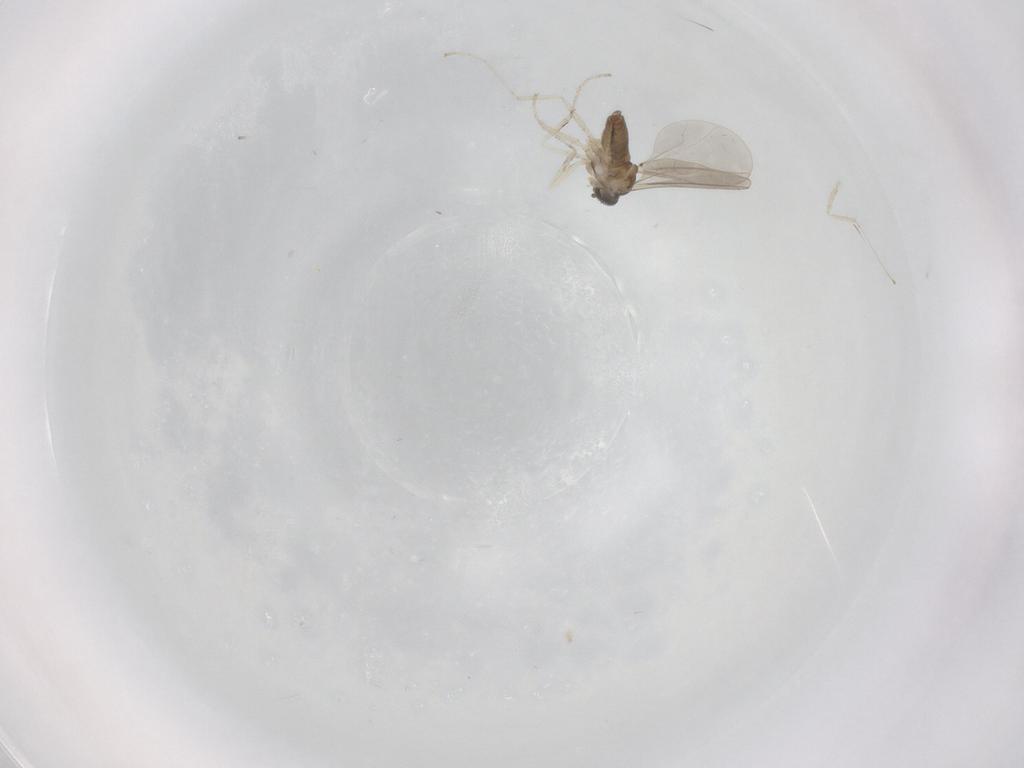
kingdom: Animalia
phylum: Arthropoda
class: Insecta
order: Diptera
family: Cecidomyiidae
